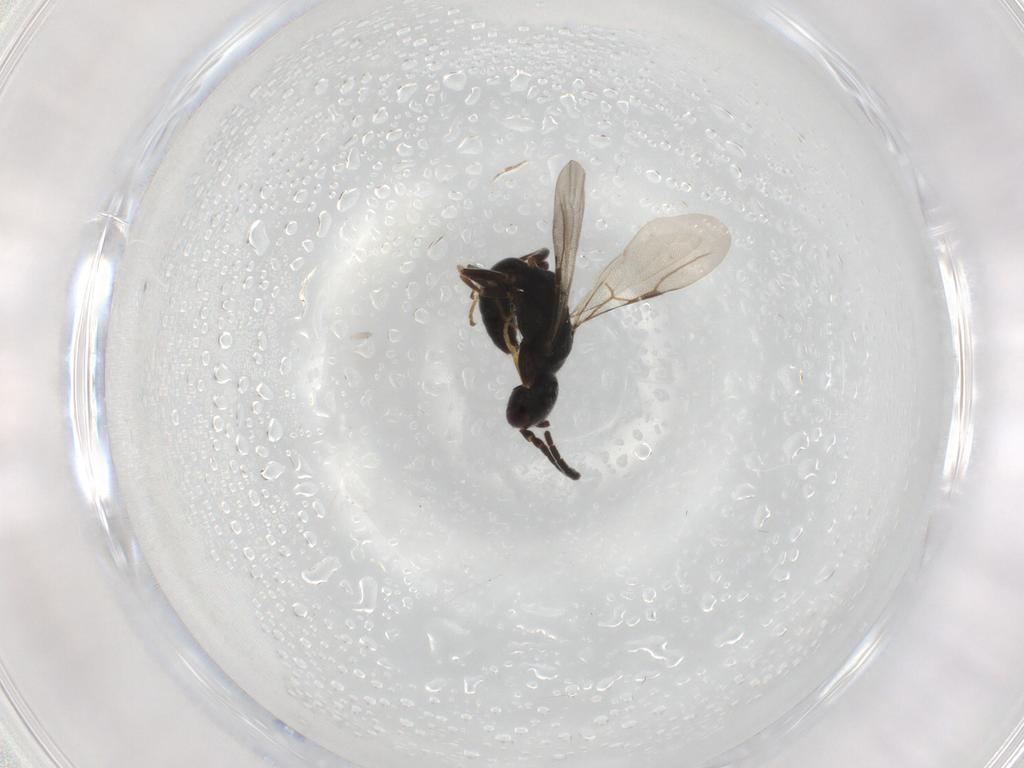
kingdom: Animalia
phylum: Arthropoda
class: Insecta
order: Hymenoptera
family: Bethylidae
